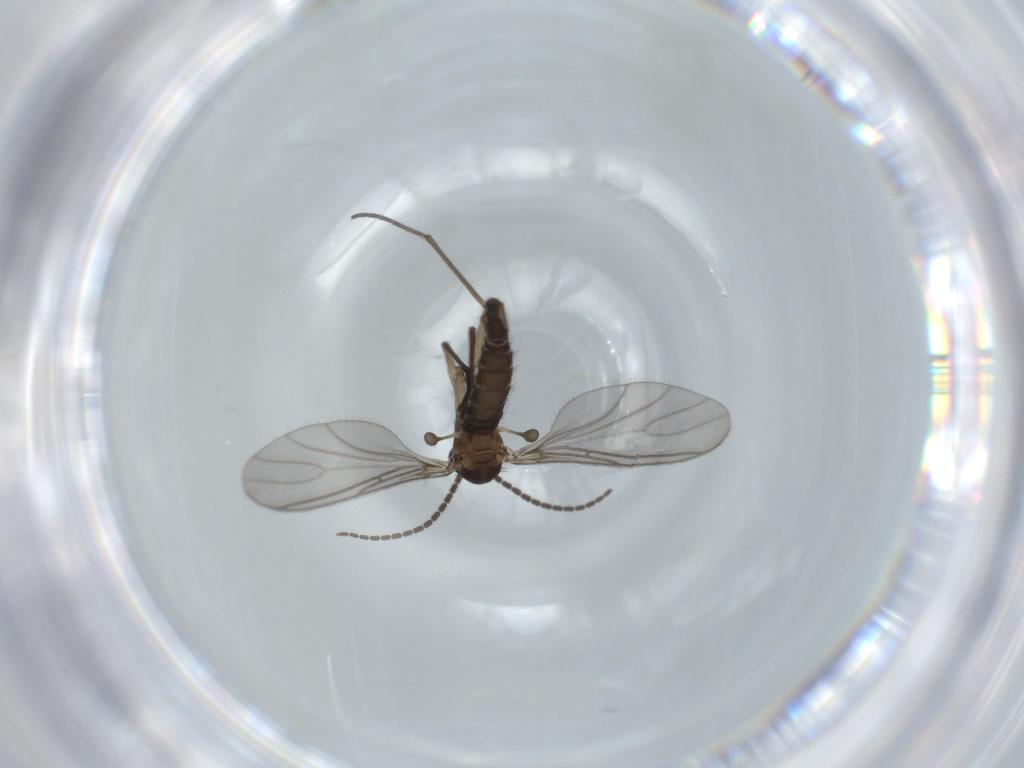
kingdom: Animalia
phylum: Arthropoda
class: Insecta
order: Diptera
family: Sciaridae
